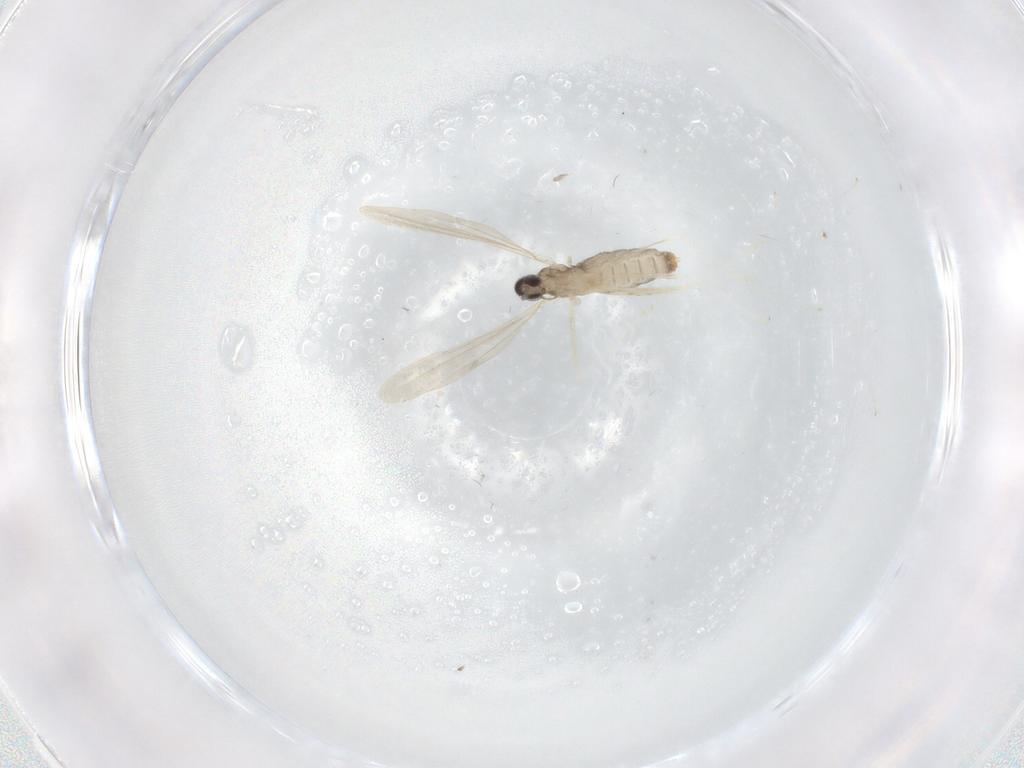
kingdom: Animalia
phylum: Arthropoda
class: Insecta
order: Diptera
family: Cecidomyiidae
